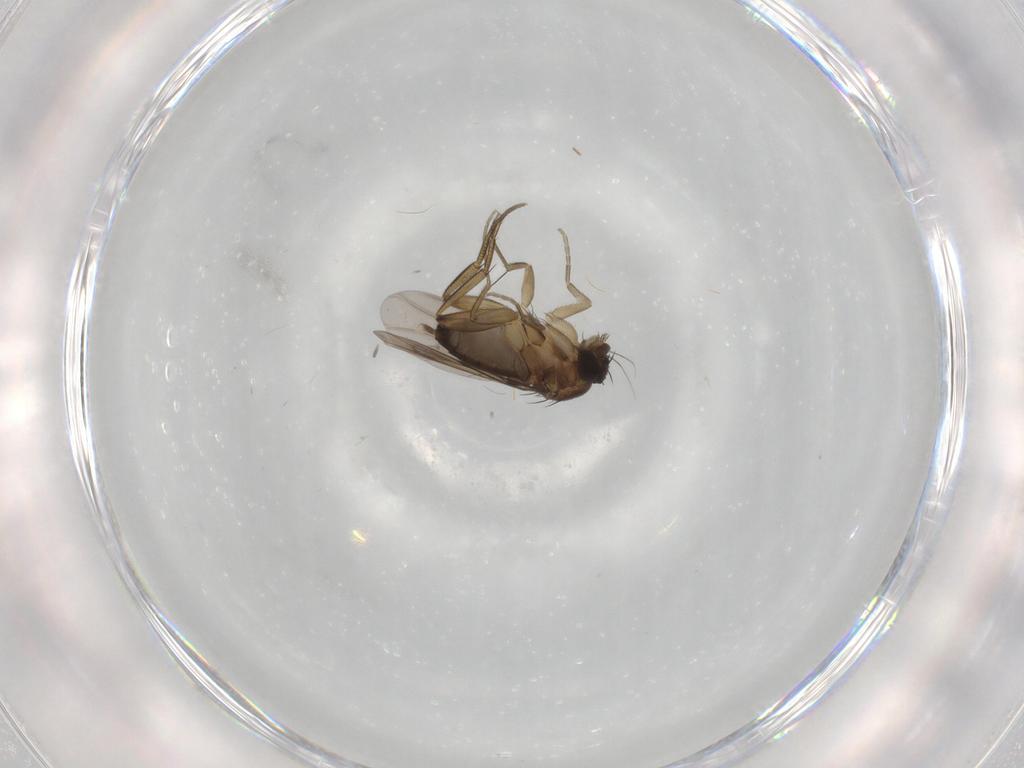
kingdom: Animalia
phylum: Arthropoda
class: Insecta
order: Diptera
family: Phoridae
